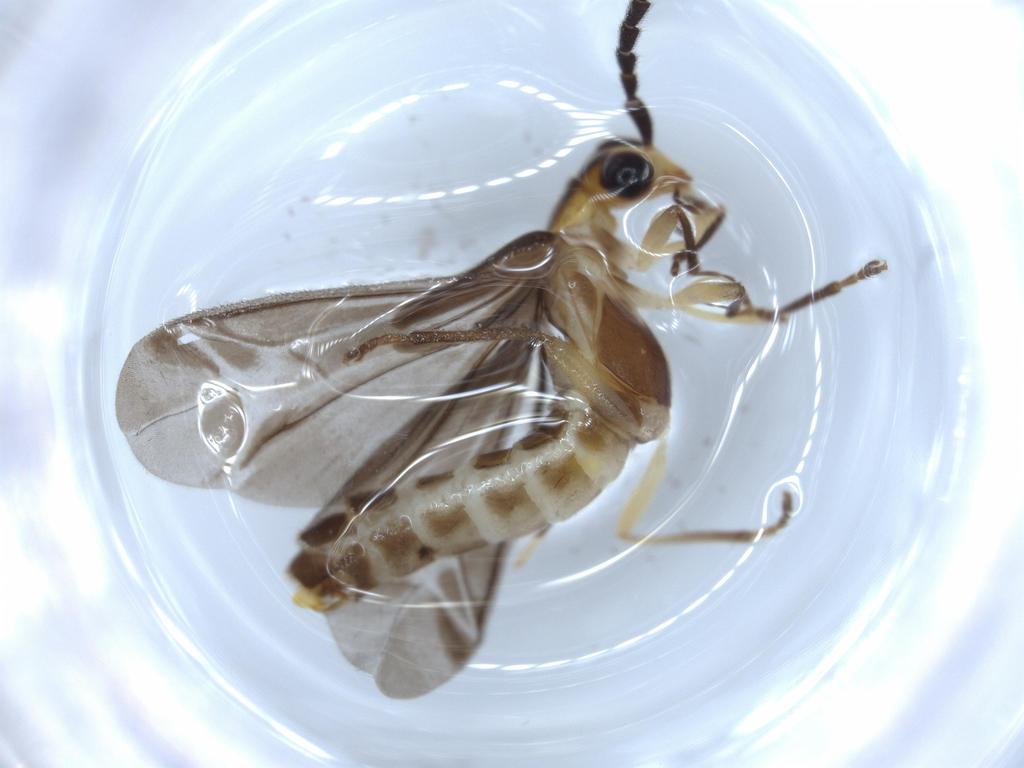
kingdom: Animalia
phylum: Arthropoda
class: Insecta
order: Coleoptera
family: Cantharidae
